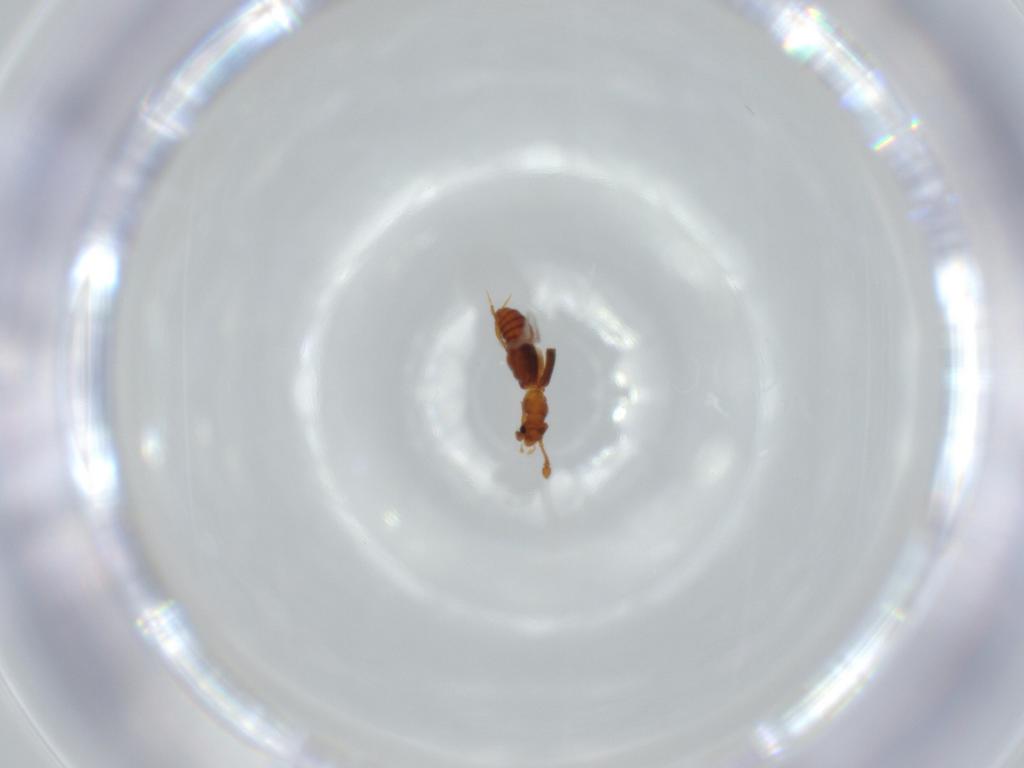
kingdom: Animalia
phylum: Arthropoda
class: Insecta
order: Coleoptera
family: Staphylinidae
